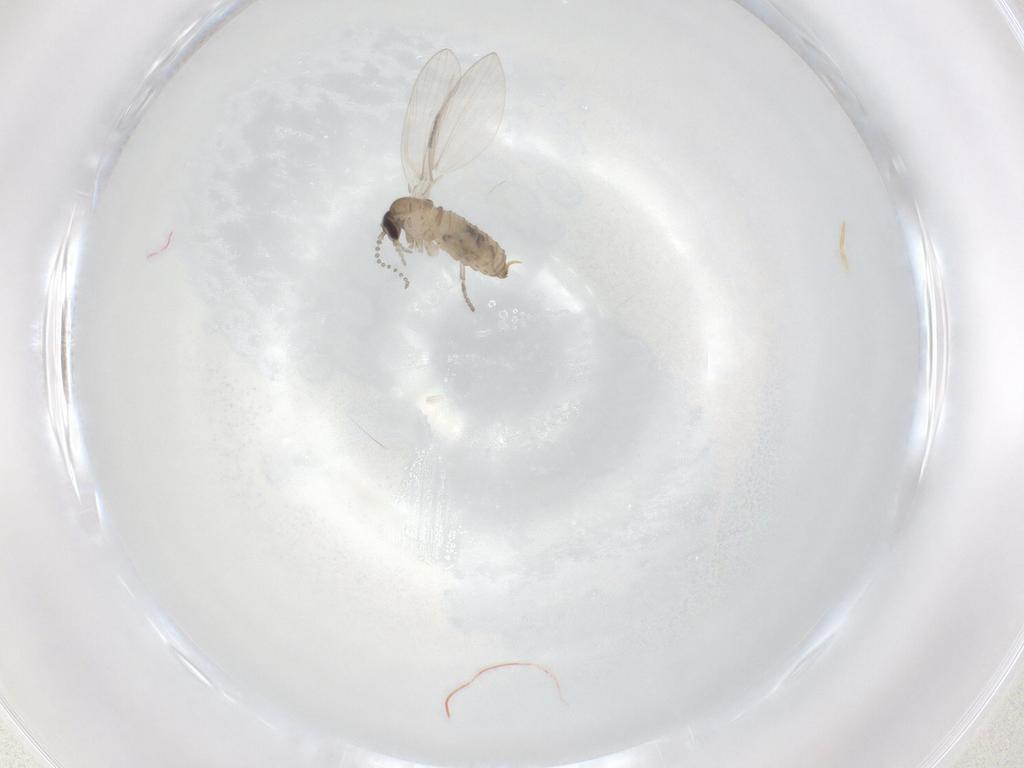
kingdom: Animalia
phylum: Arthropoda
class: Insecta
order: Diptera
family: Psychodidae
